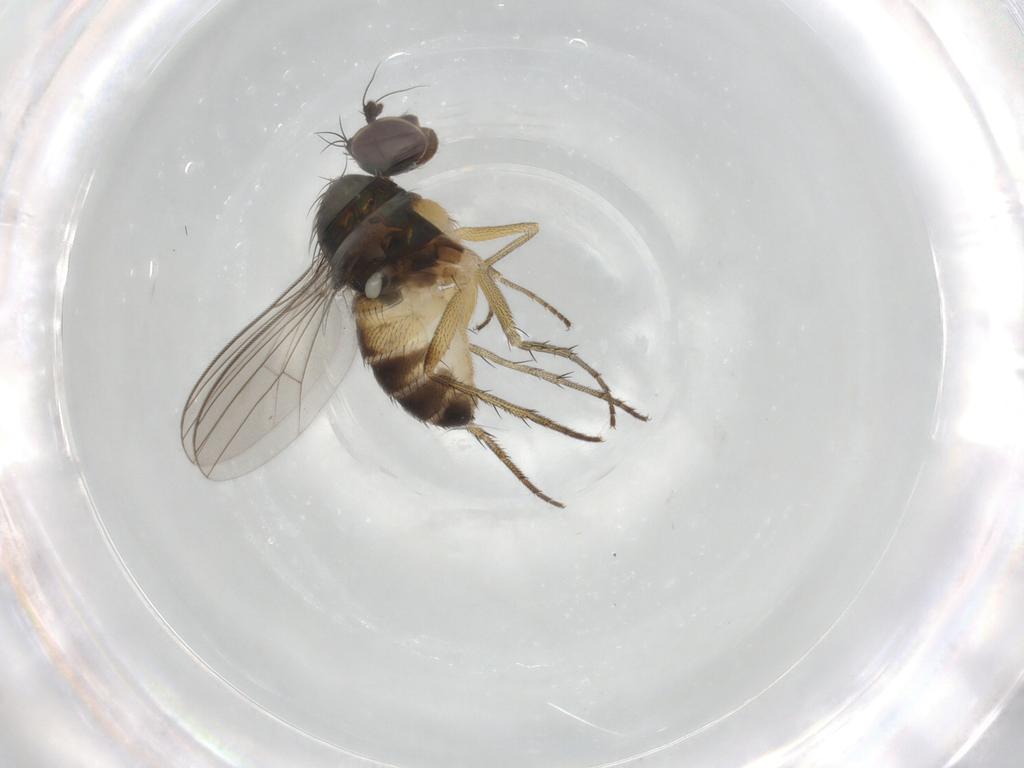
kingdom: Animalia
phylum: Arthropoda
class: Insecta
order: Diptera
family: Dolichopodidae
